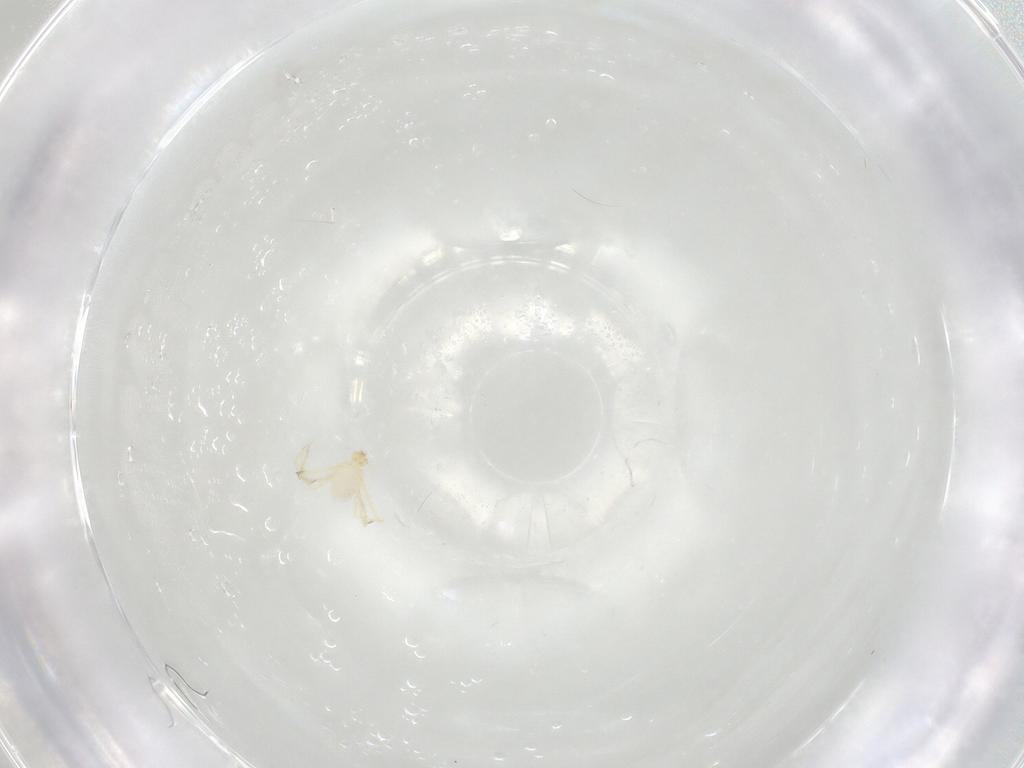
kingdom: Animalia
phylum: Arthropoda
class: Arachnida
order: Trombidiformes
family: Erythraeidae
